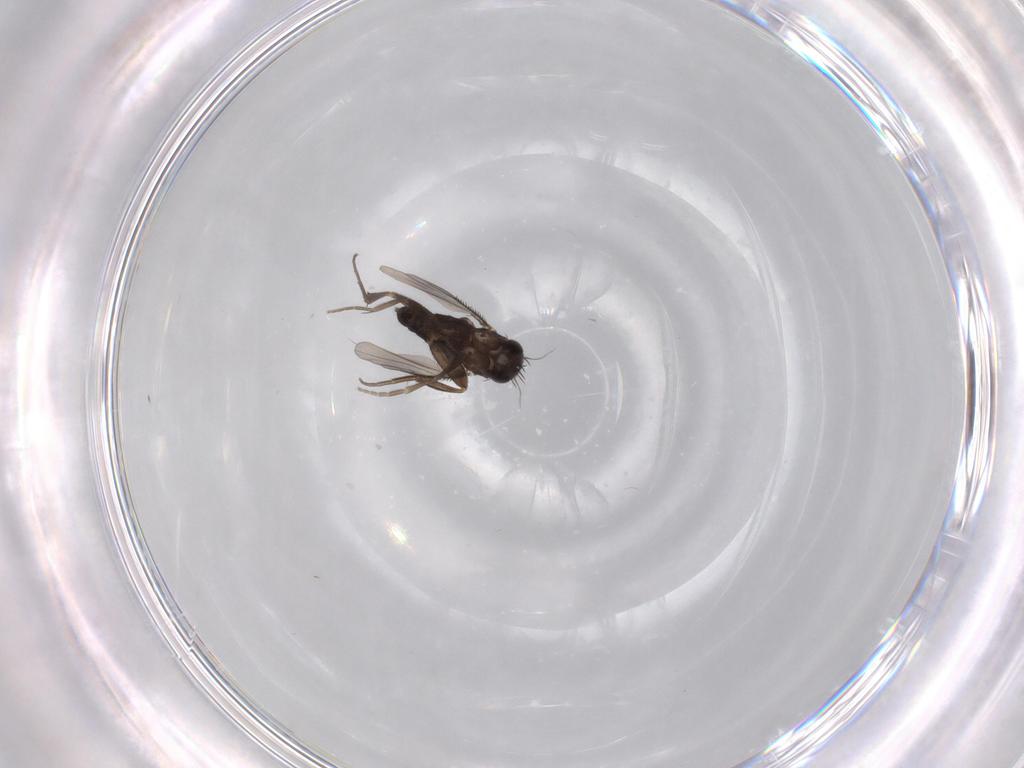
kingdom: Animalia
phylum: Arthropoda
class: Insecta
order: Diptera
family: Phoridae
